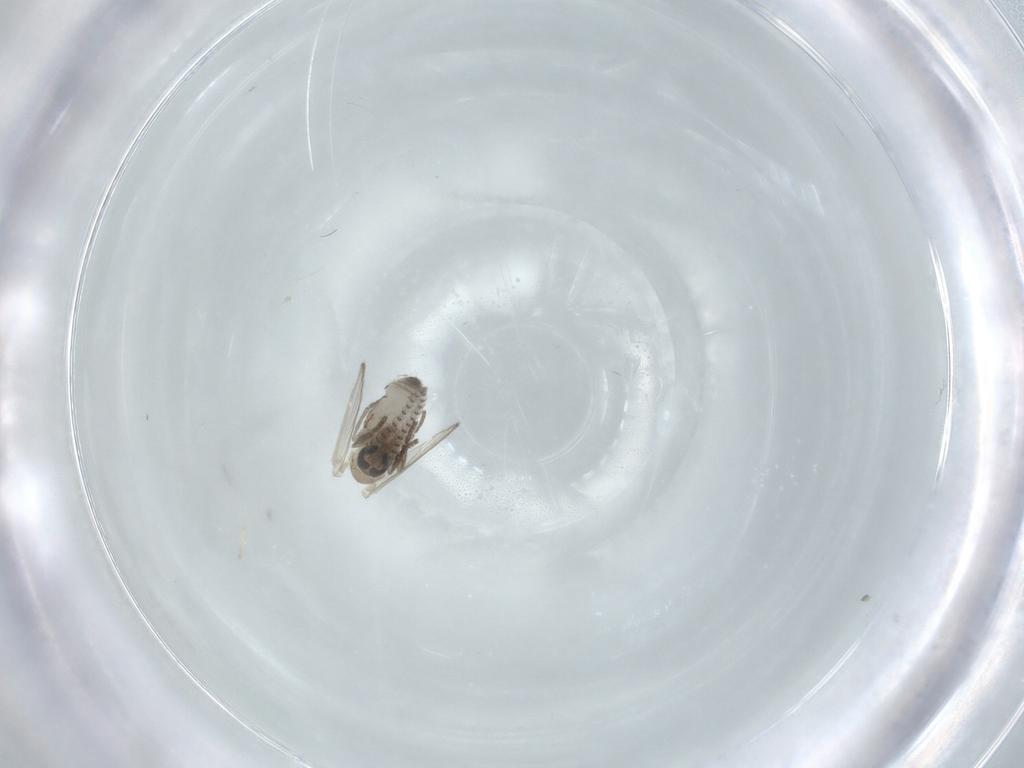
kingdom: Animalia
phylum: Arthropoda
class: Insecta
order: Diptera
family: Psychodidae
